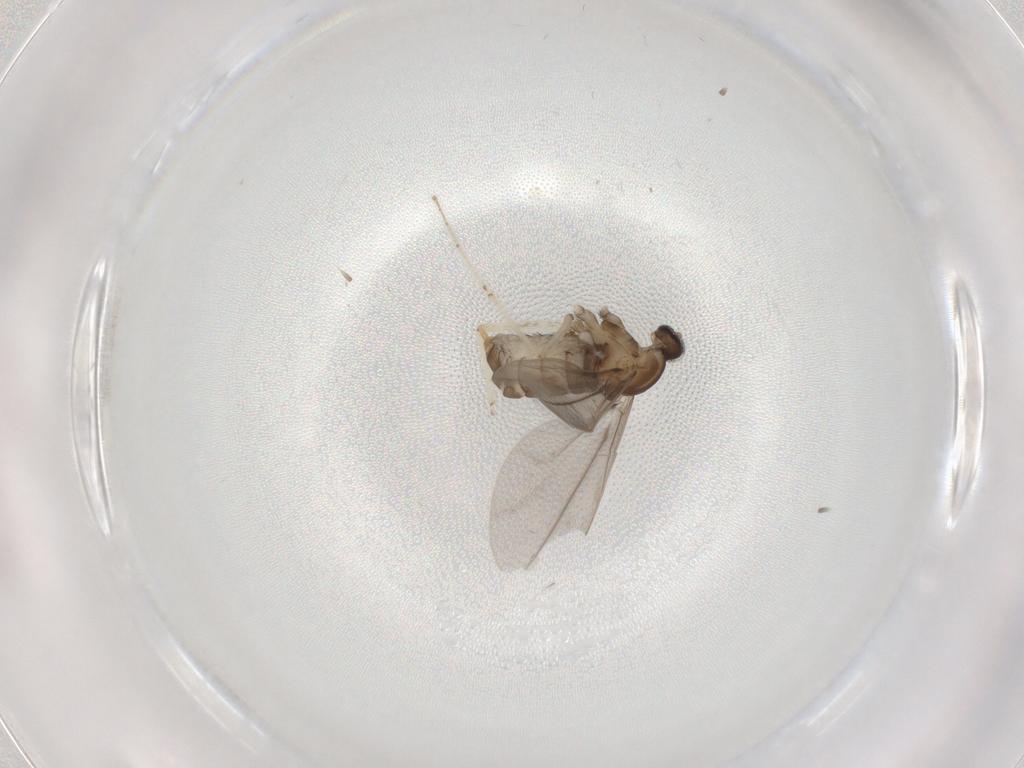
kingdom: Animalia
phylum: Arthropoda
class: Insecta
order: Diptera
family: Cecidomyiidae
